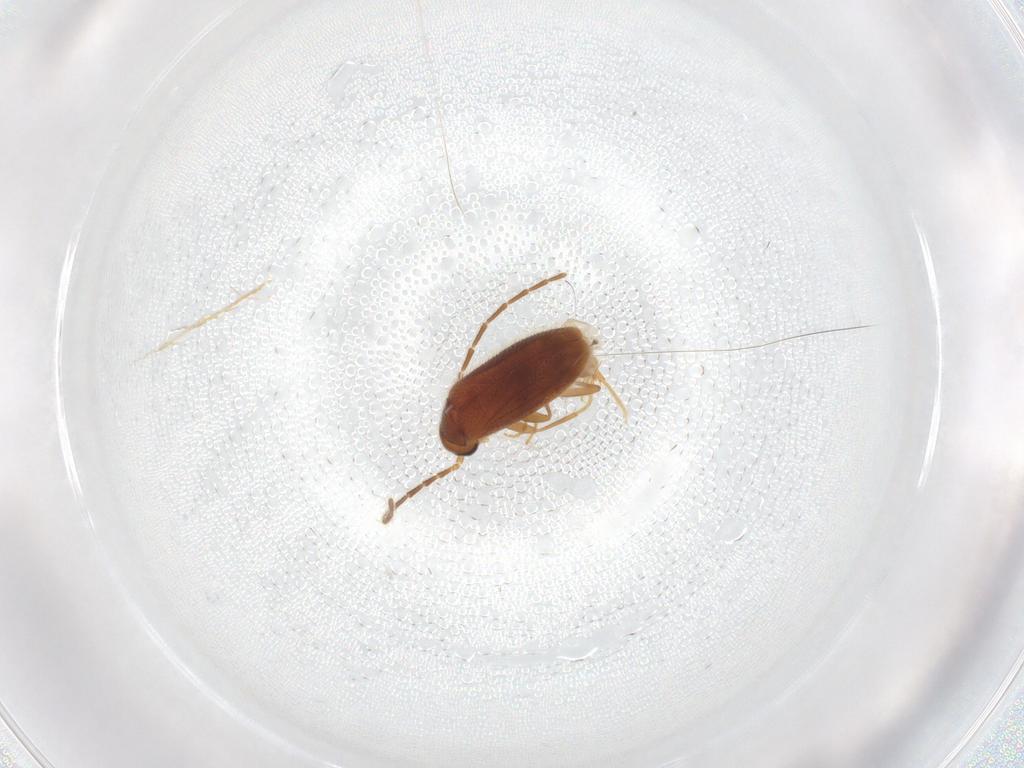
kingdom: Animalia
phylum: Arthropoda
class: Insecta
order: Coleoptera
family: Scraptiidae
